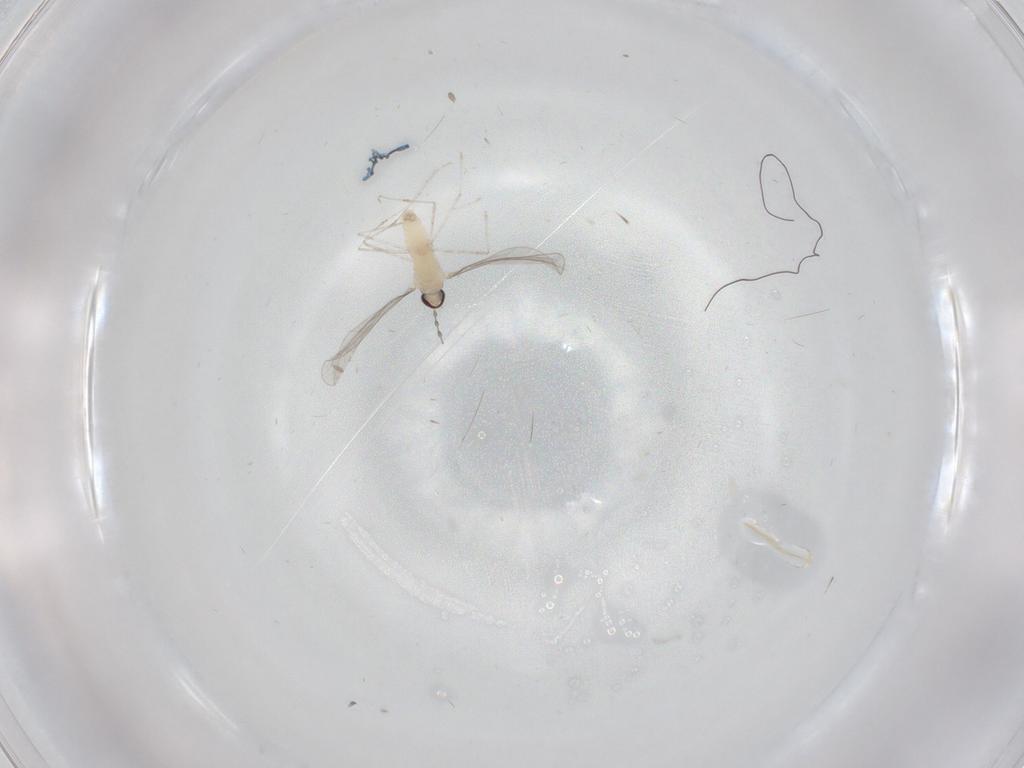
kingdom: Animalia
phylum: Arthropoda
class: Insecta
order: Diptera
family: Cecidomyiidae
